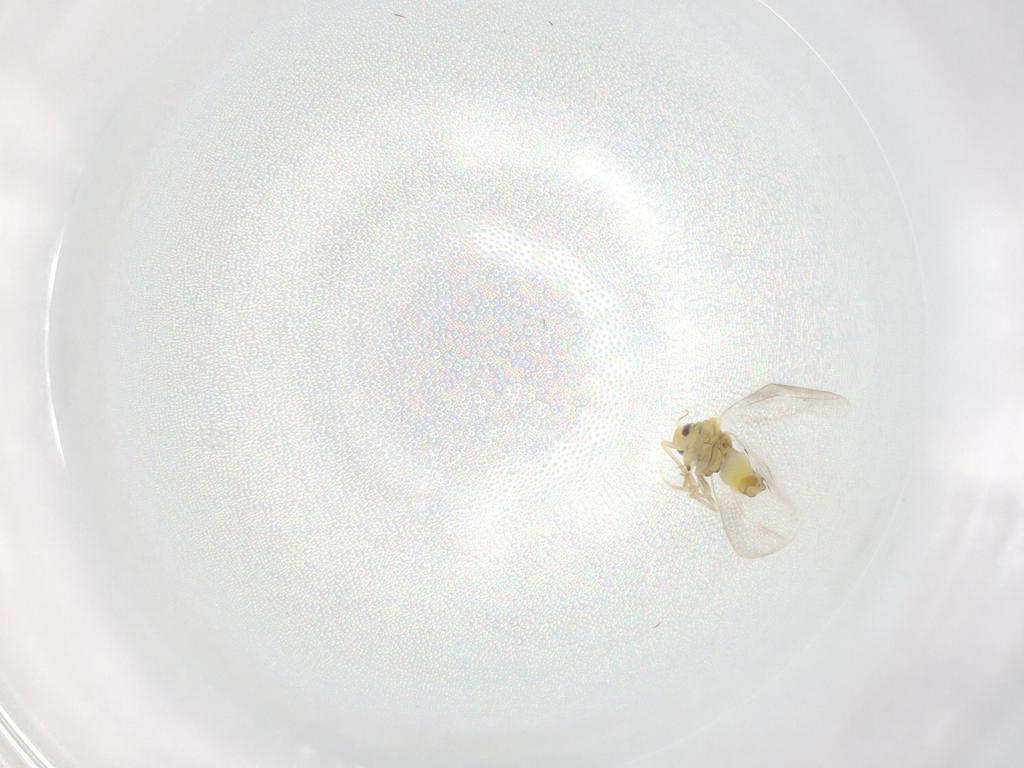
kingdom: Animalia
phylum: Arthropoda
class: Insecta
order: Hemiptera
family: Aleyrodidae
